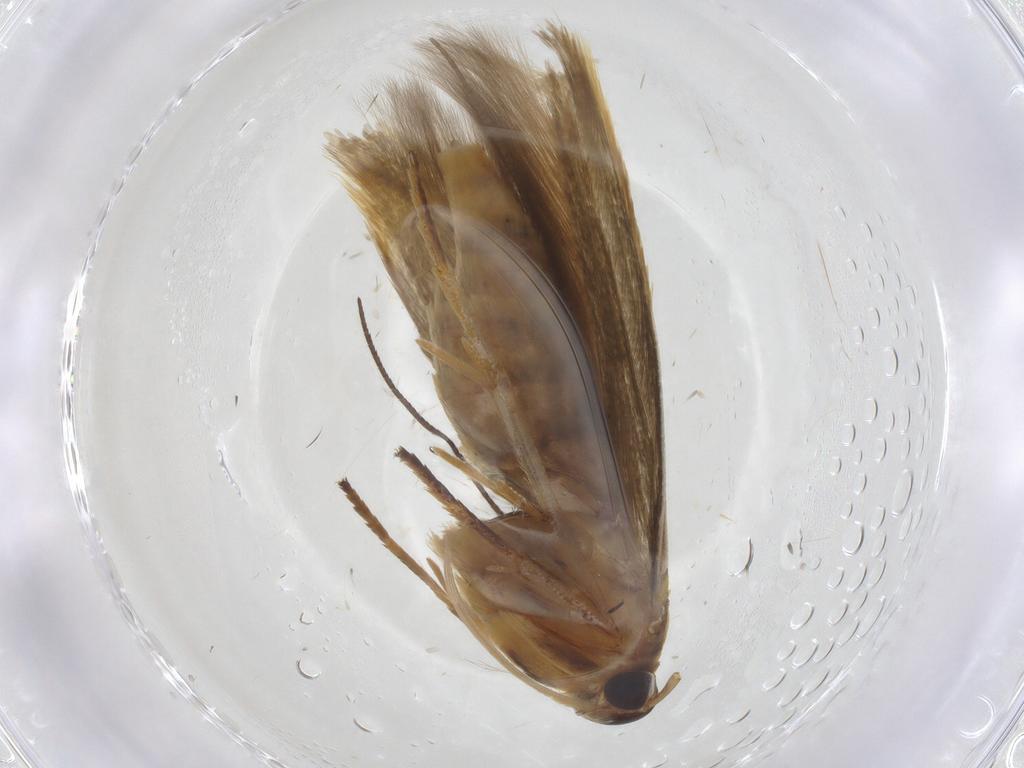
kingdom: Animalia
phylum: Arthropoda
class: Insecta
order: Lepidoptera
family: Stathmopodidae
